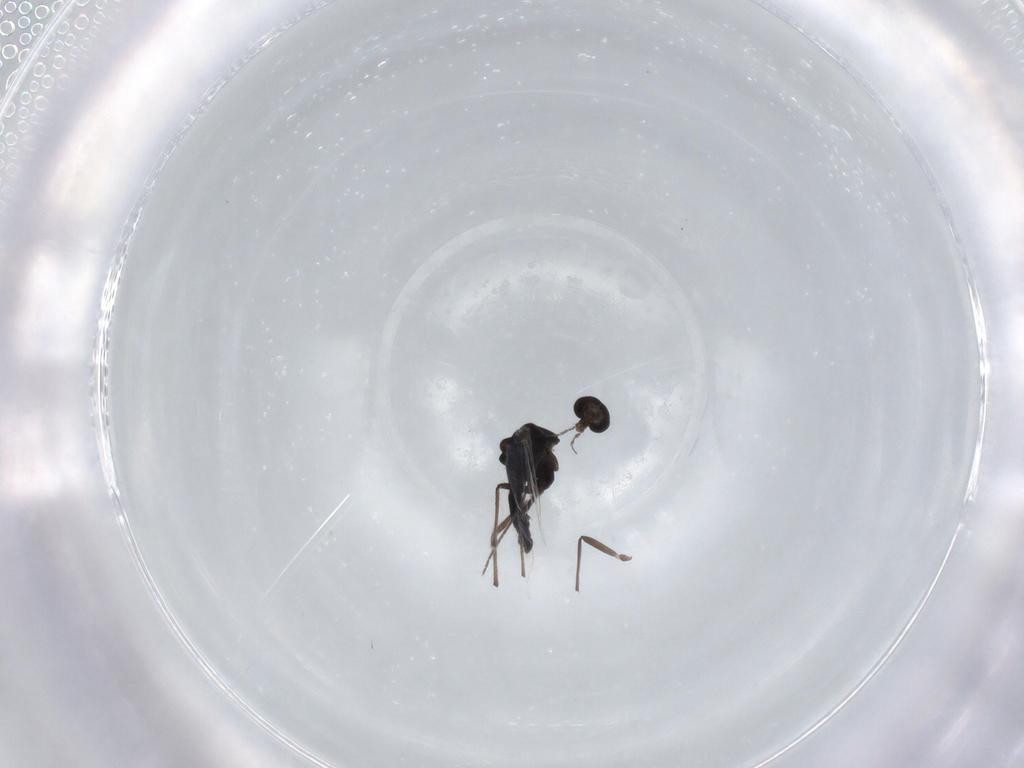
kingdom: Animalia
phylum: Arthropoda
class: Insecta
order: Diptera
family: Chironomidae
